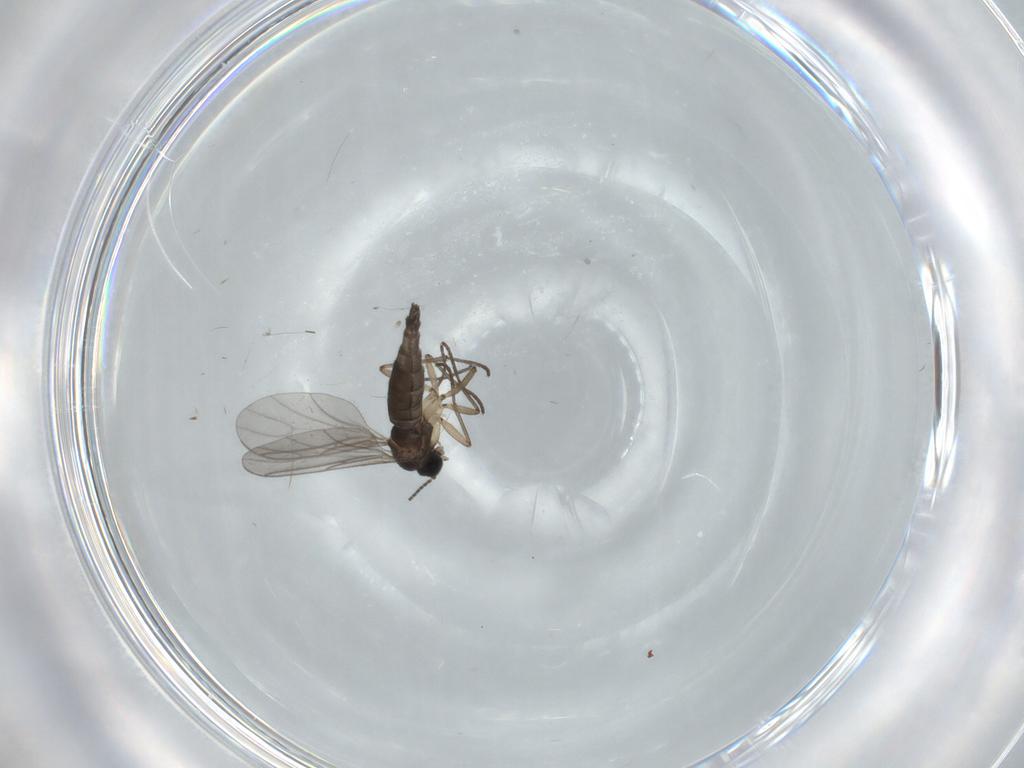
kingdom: Animalia
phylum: Arthropoda
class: Insecta
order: Diptera
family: Sciaridae
